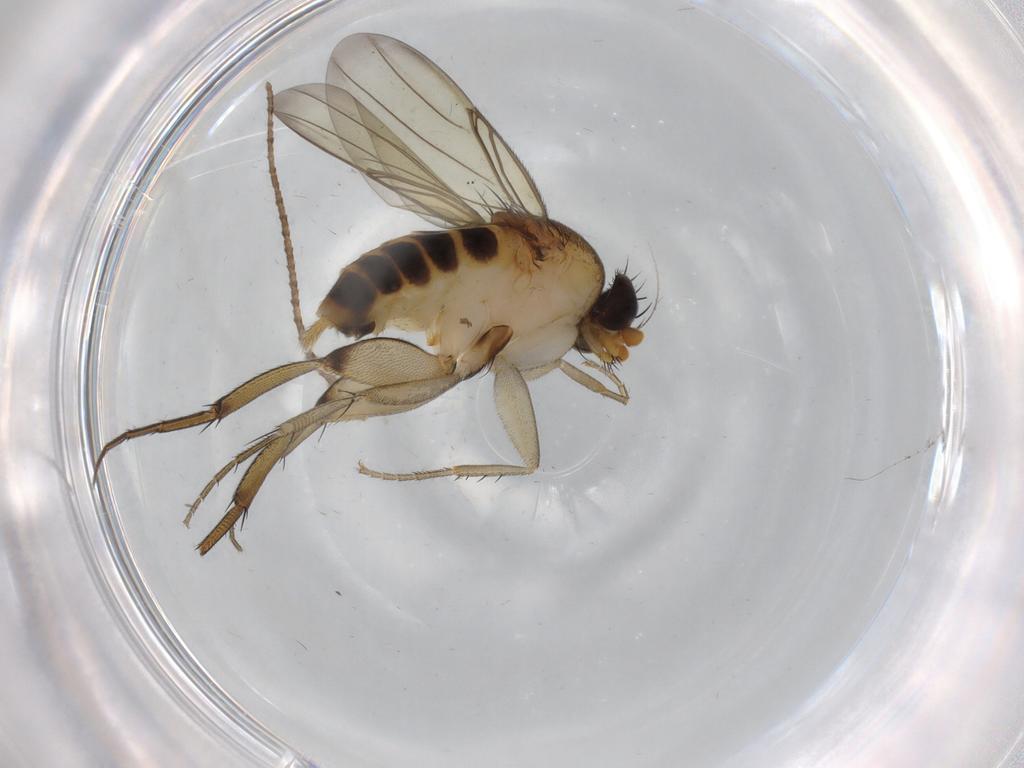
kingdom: Animalia
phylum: Arthropoda
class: Insecta
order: Diptera
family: Phoridae
